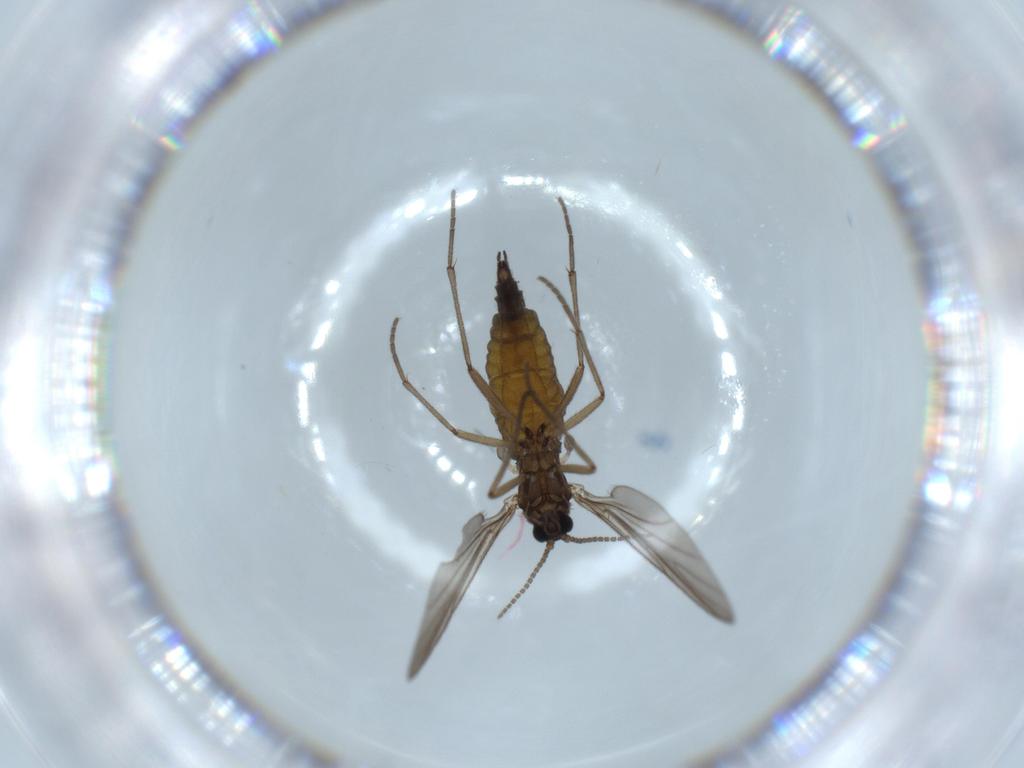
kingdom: Animalia
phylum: Arthropoda
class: Insecta
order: Diptera
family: Sciaridae
